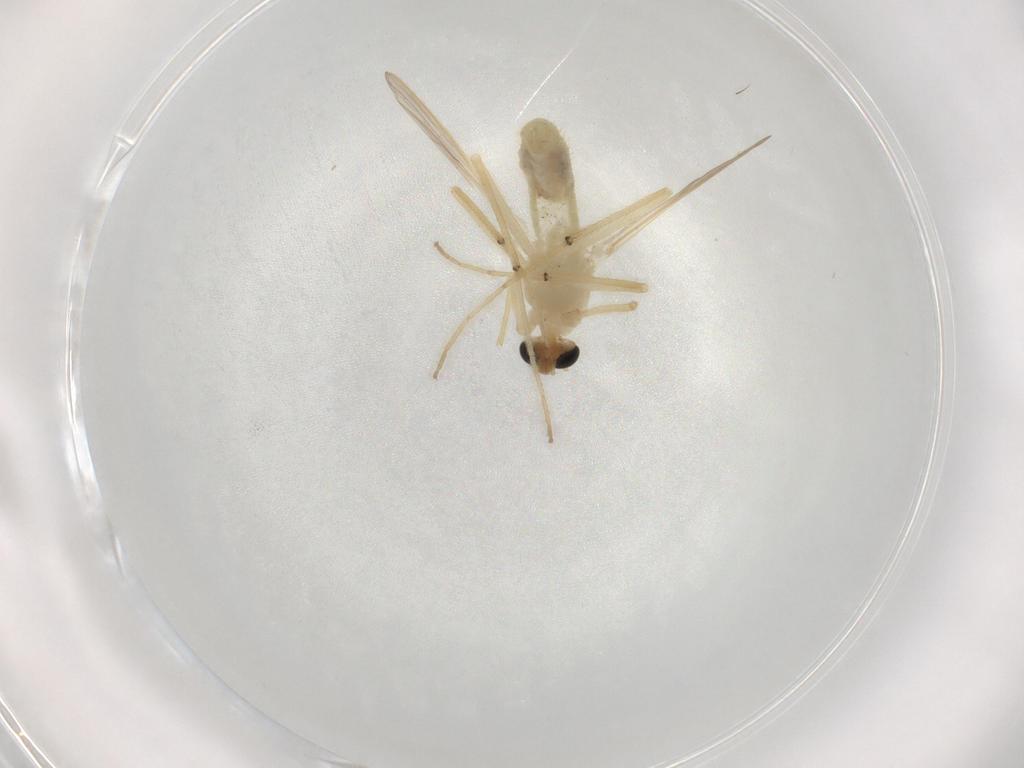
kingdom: Animalia
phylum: Arthropoda
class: Insecta
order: Diptera
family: Chironomidae
